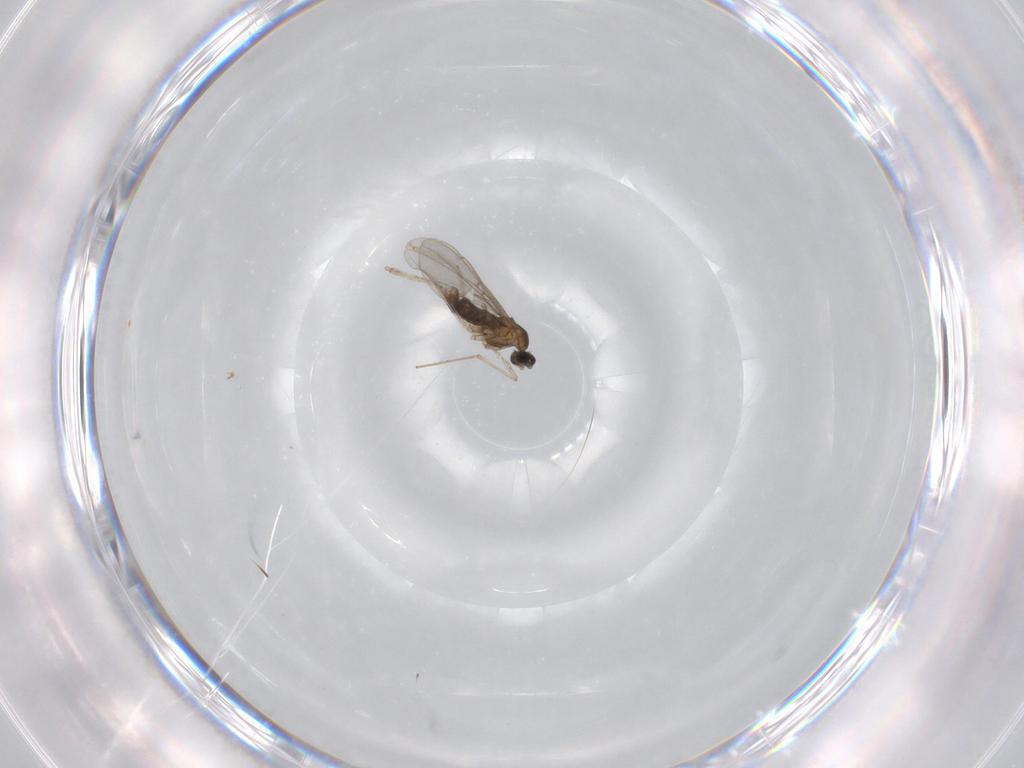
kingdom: Animalia
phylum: Arthropoda
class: Insecta
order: Diptera
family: Cecidomyiidae
